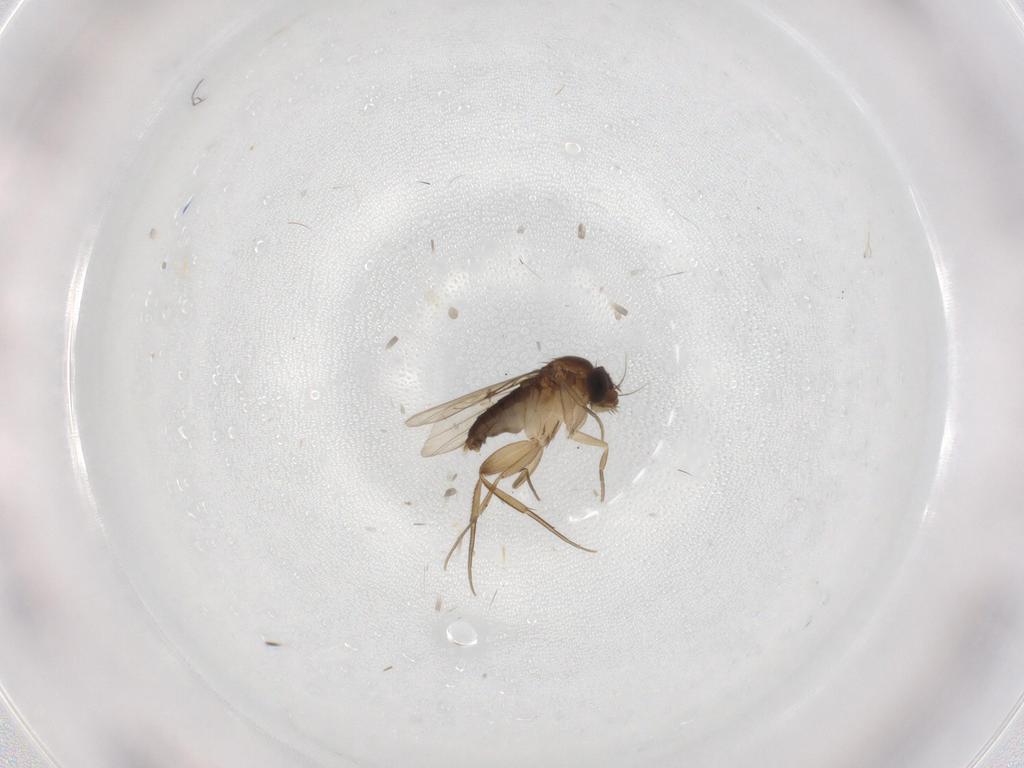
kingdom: Animalia
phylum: Arthropoda
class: Insecta
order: Diptera
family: Phoridae
